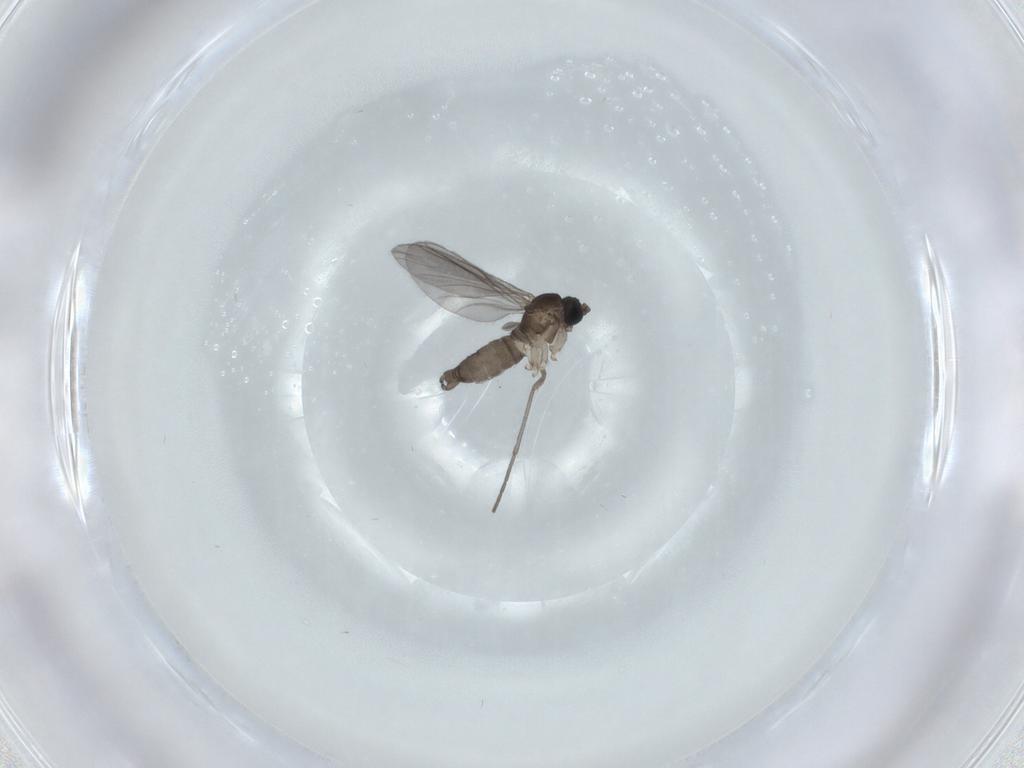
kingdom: Animalia
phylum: Arthropoda
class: Insecta
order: Diptera
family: Sciaridae
